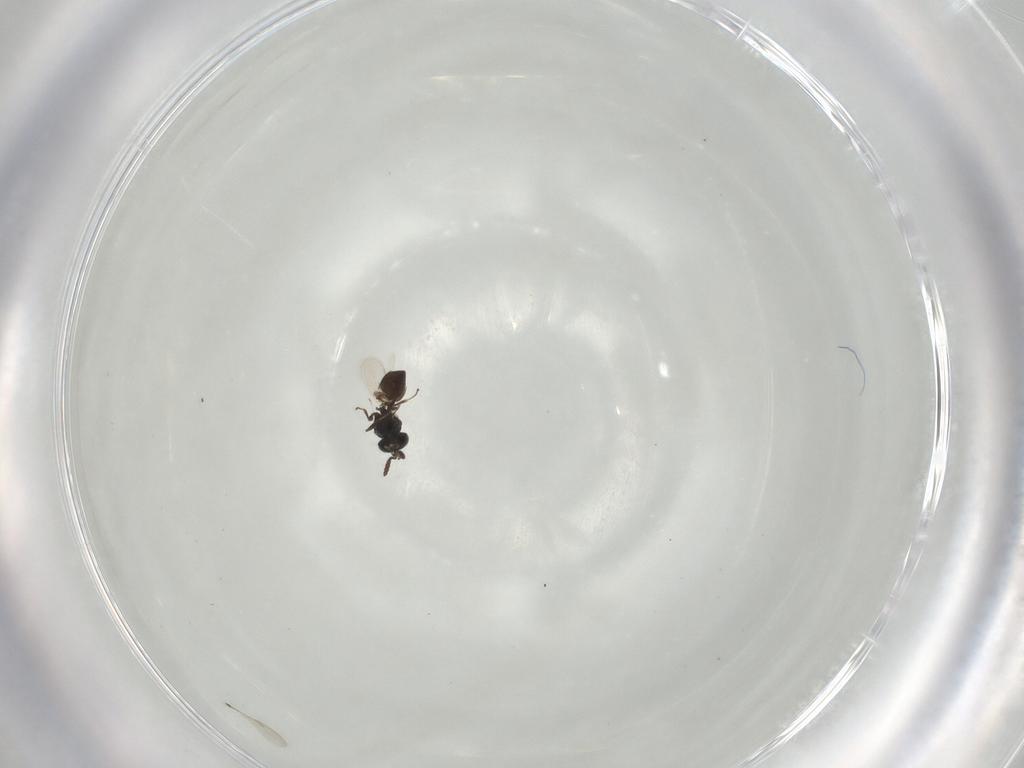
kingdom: Animalia
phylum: Arthropoda
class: Insecta
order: Hymenoptera
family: Scelionidae
